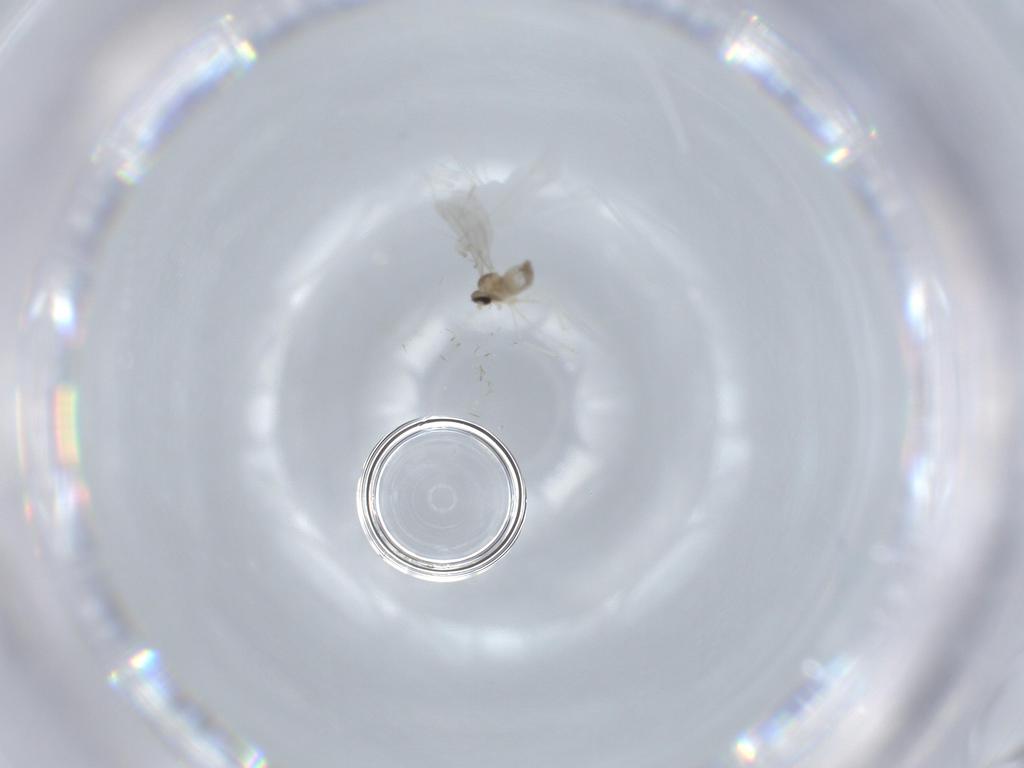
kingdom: Animalia
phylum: Arthropoda
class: Insecta
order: Diptera
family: Cecidomyiidae
